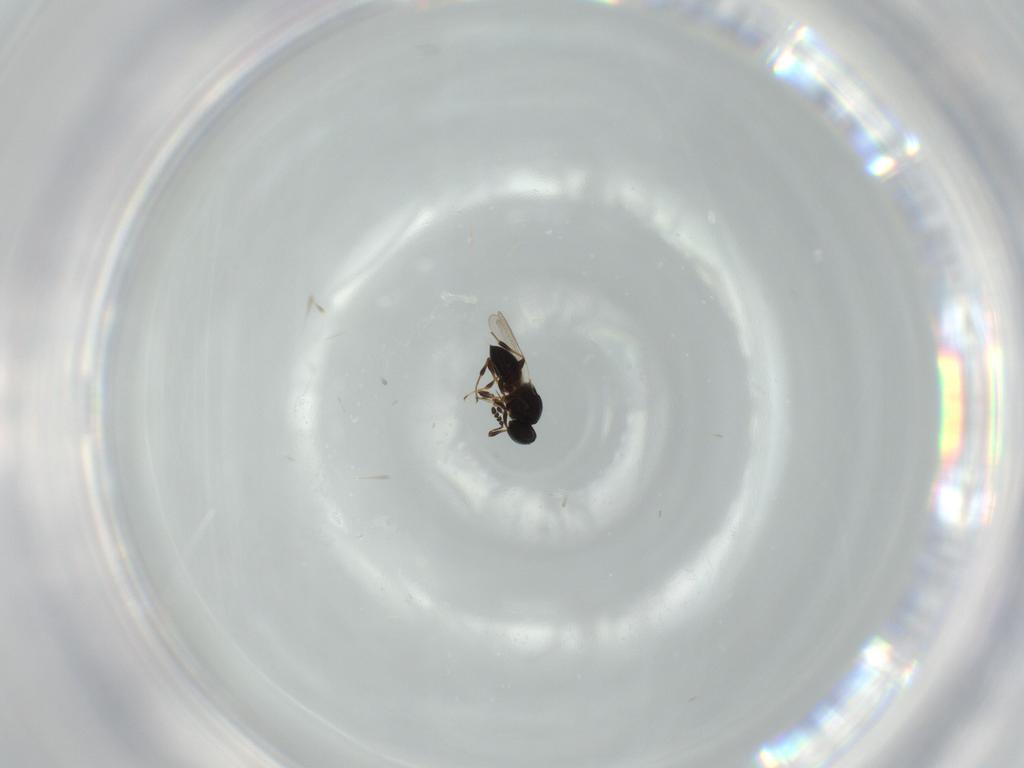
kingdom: Animalia
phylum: Arthropoda
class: Insecta
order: Hymenoptera
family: Platygastridae
